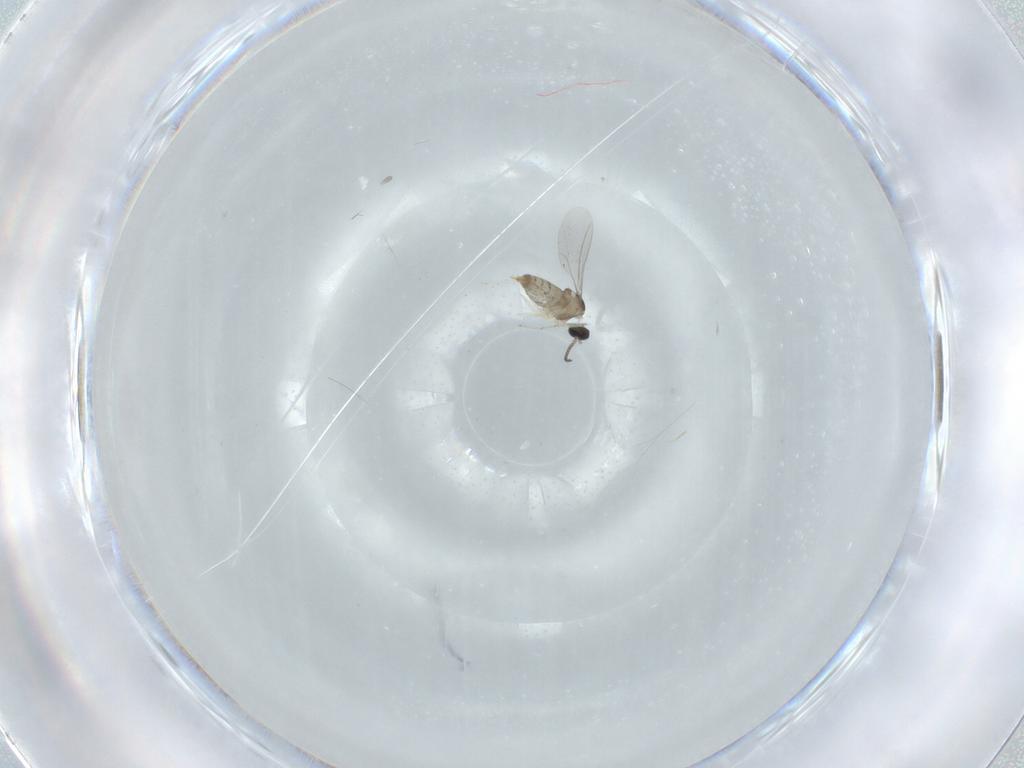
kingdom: Animalia
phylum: Arthropoda
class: Insecta
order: Diptera
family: Cecidomyiidae
